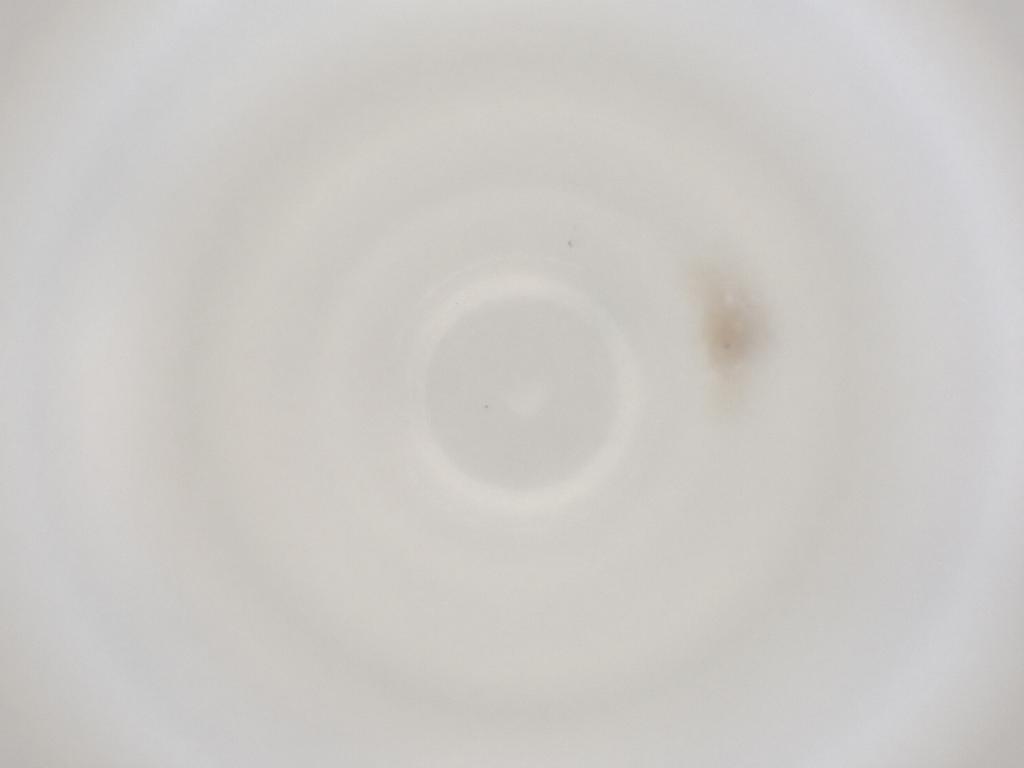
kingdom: Animalia
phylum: Arthropoda
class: Insecta
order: Diptera
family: Cecidomyiidae
